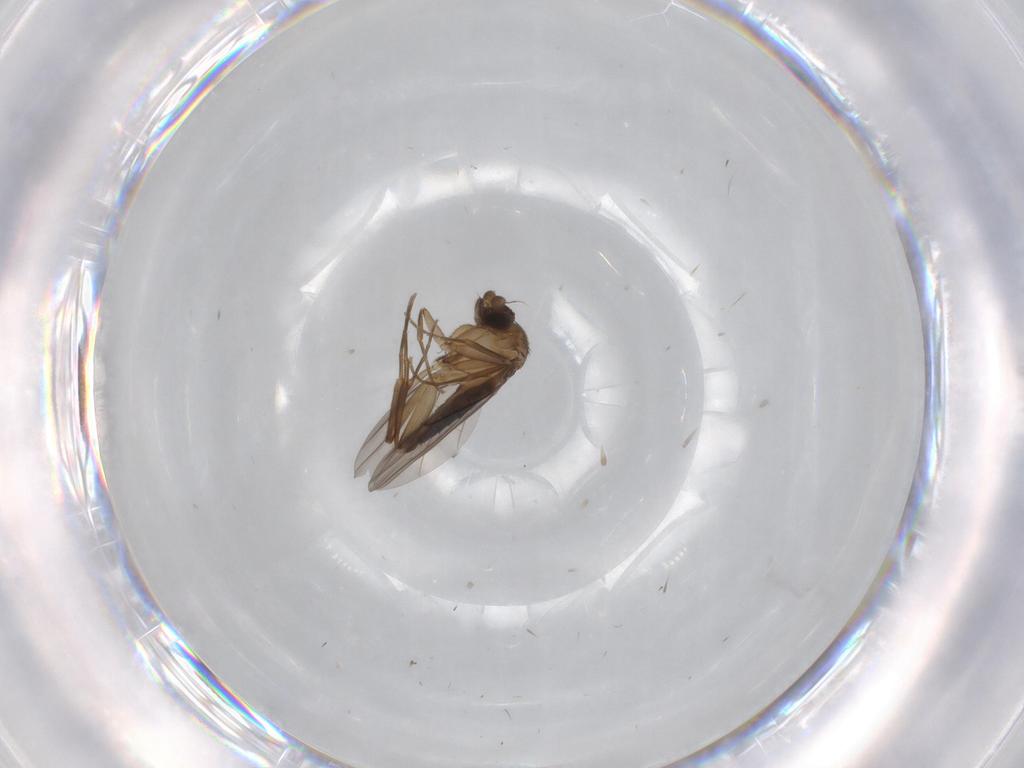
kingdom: Animalia
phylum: Arthropoda
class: Insecta
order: Diptera
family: Phoridae
